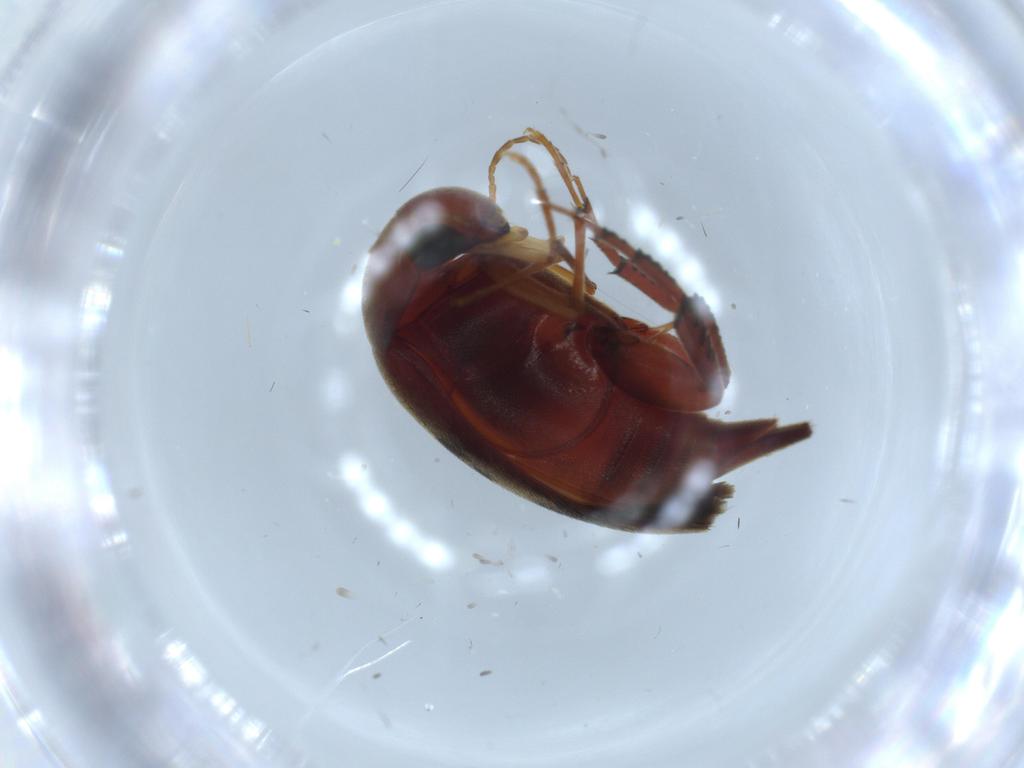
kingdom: Animalia
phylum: Arthropoda
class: Insecta
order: Coleoptera
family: Mordellidae
